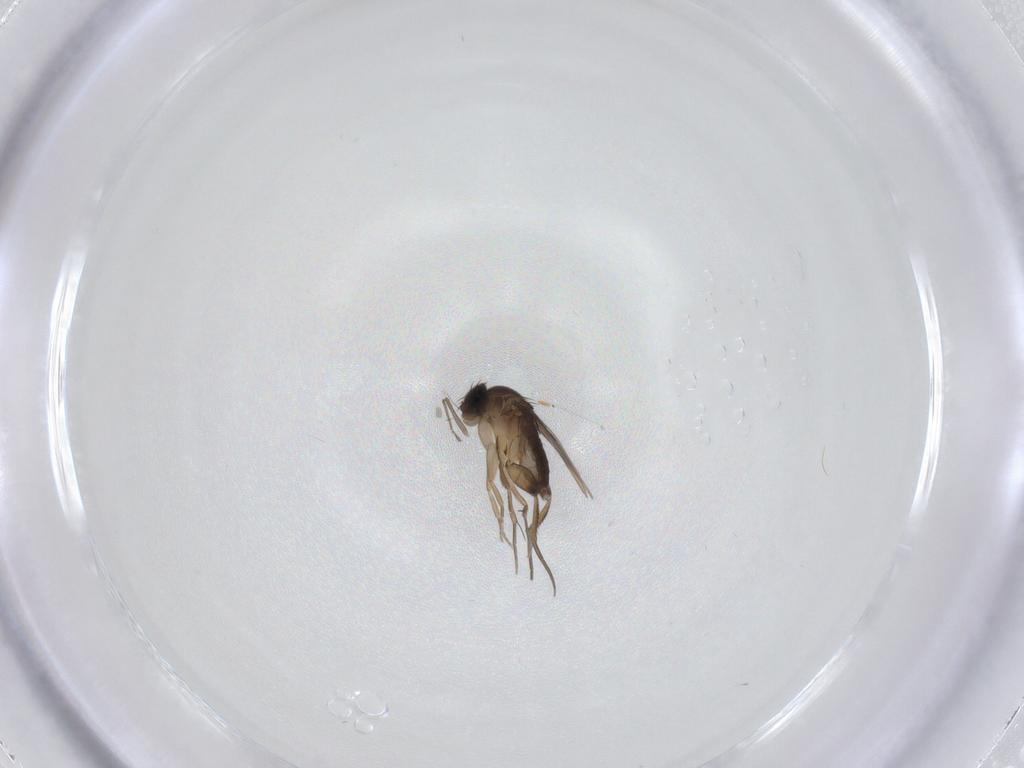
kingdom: Animalia
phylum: Arthropoda
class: Insecta
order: Diptera
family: Phoridae
